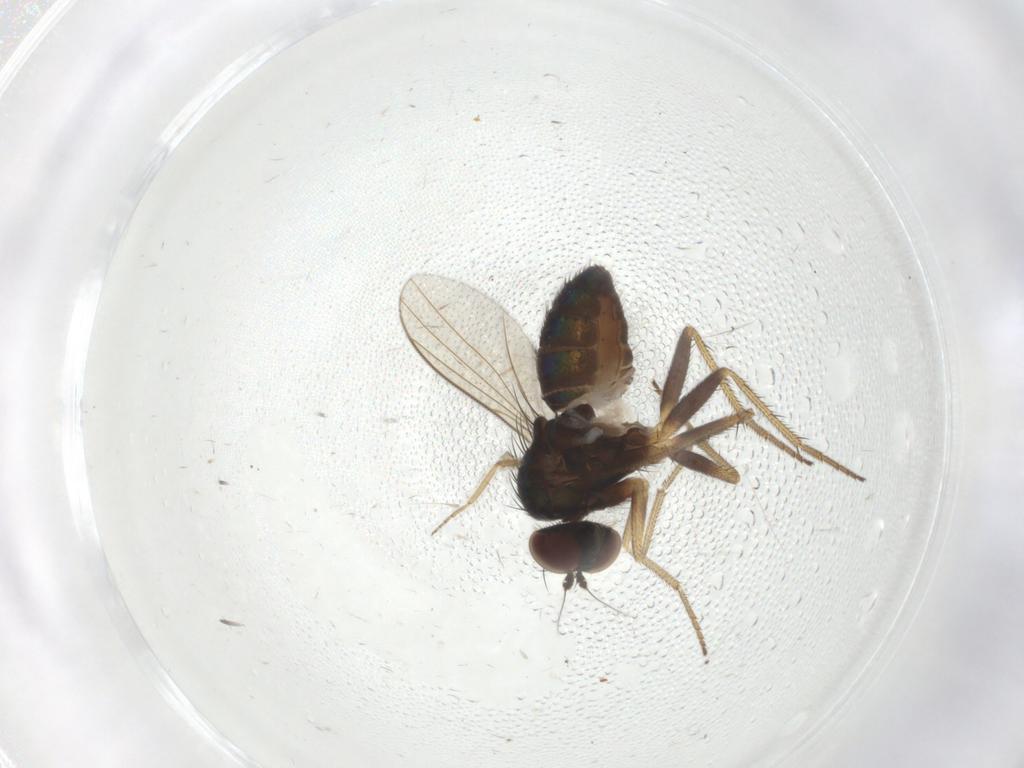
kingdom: Animalia
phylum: Arthropoda
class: Insecta
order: Diptera
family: Cecidomyiidae
